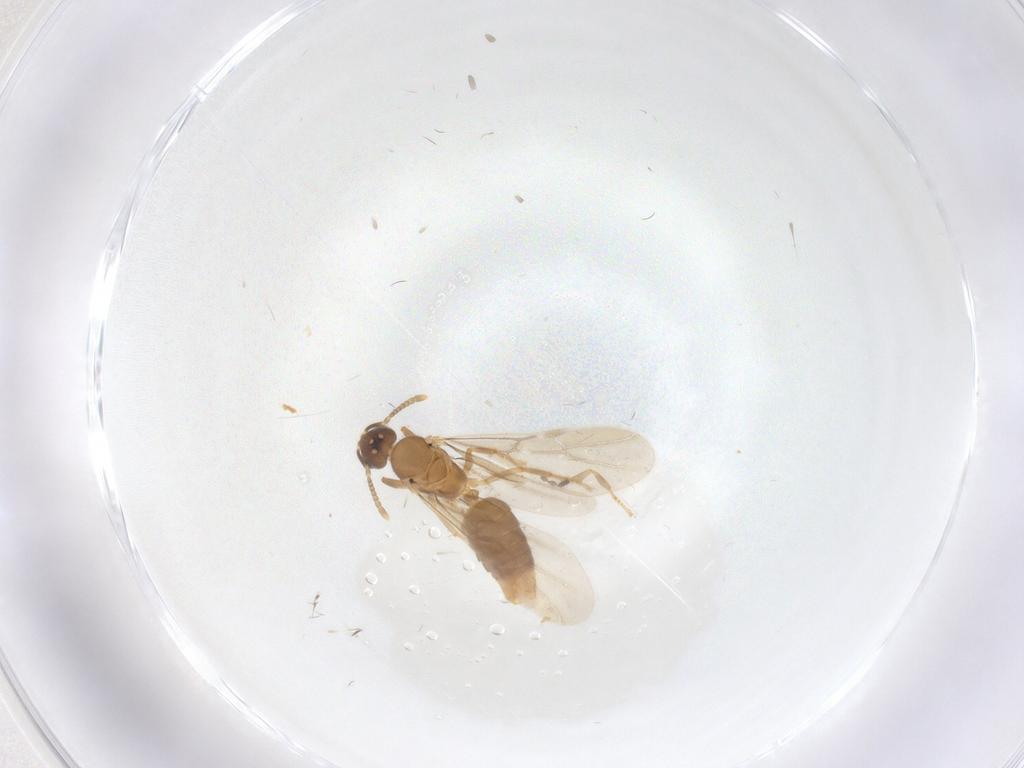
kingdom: Animalia
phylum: Arthropoda
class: Insecta
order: Hymenoptera
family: Formicidae
